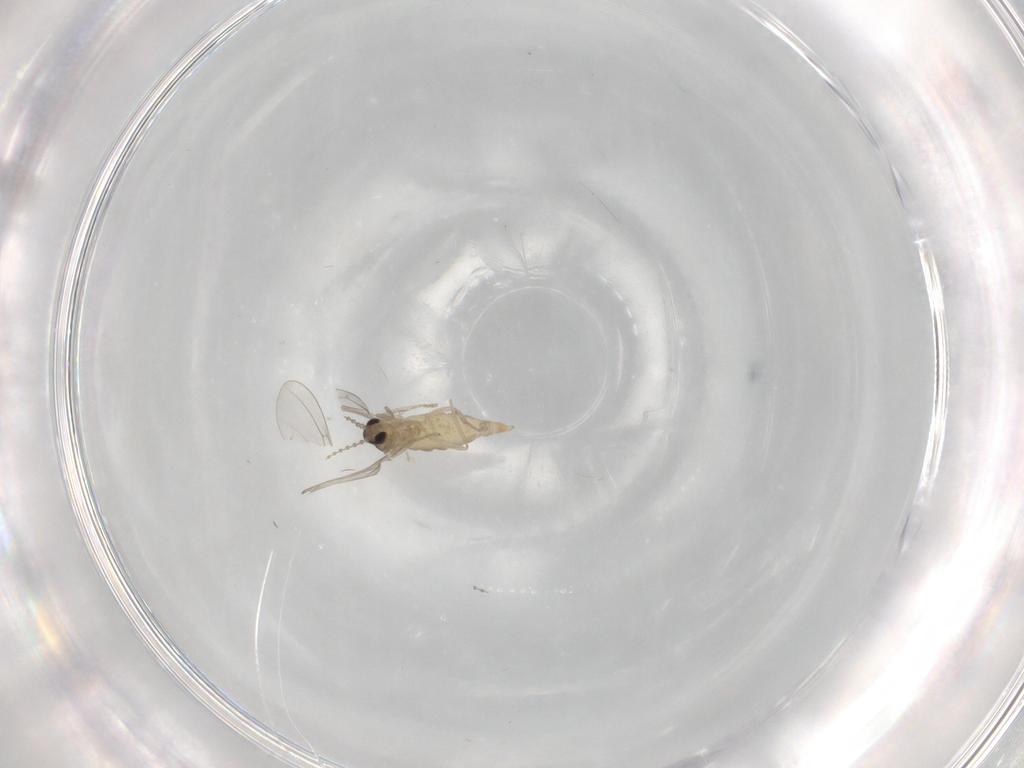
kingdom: Animalia
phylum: Arthropoda
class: Insecta
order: Diptera
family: Cecidomyiidae
